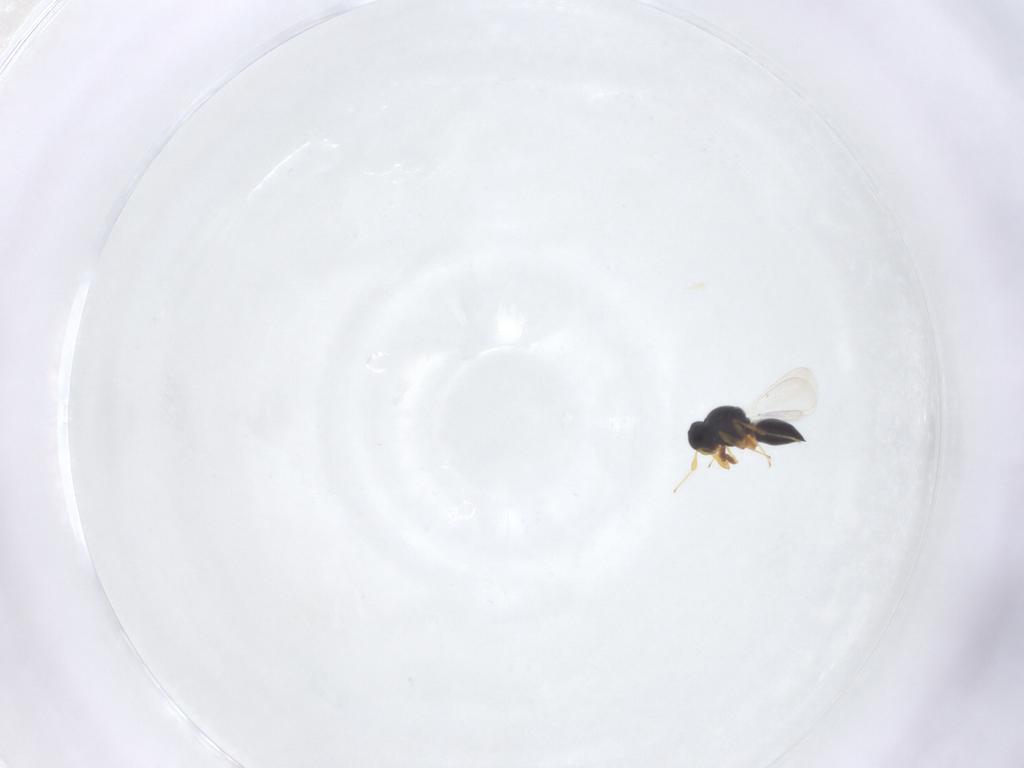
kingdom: Animalia
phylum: Arthropoda
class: Insecta
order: Hymenoptera
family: Platygastridae
